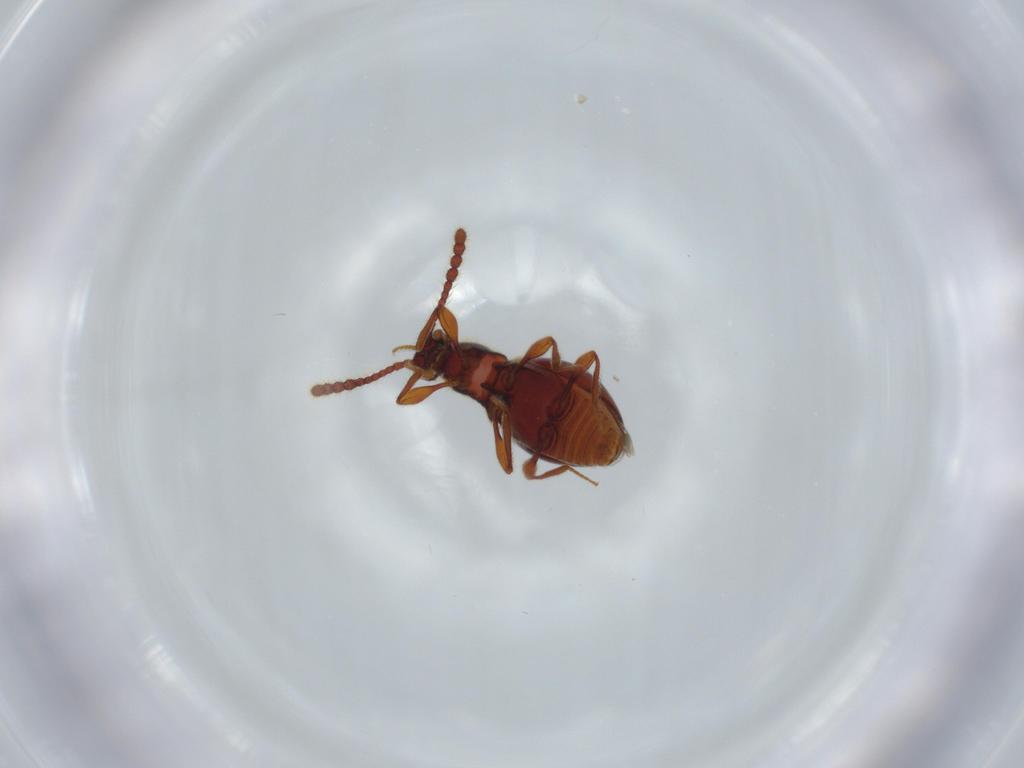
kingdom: Animalia
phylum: Arthropoda
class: Insecta
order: Coleoptera
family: Staphylinidae
